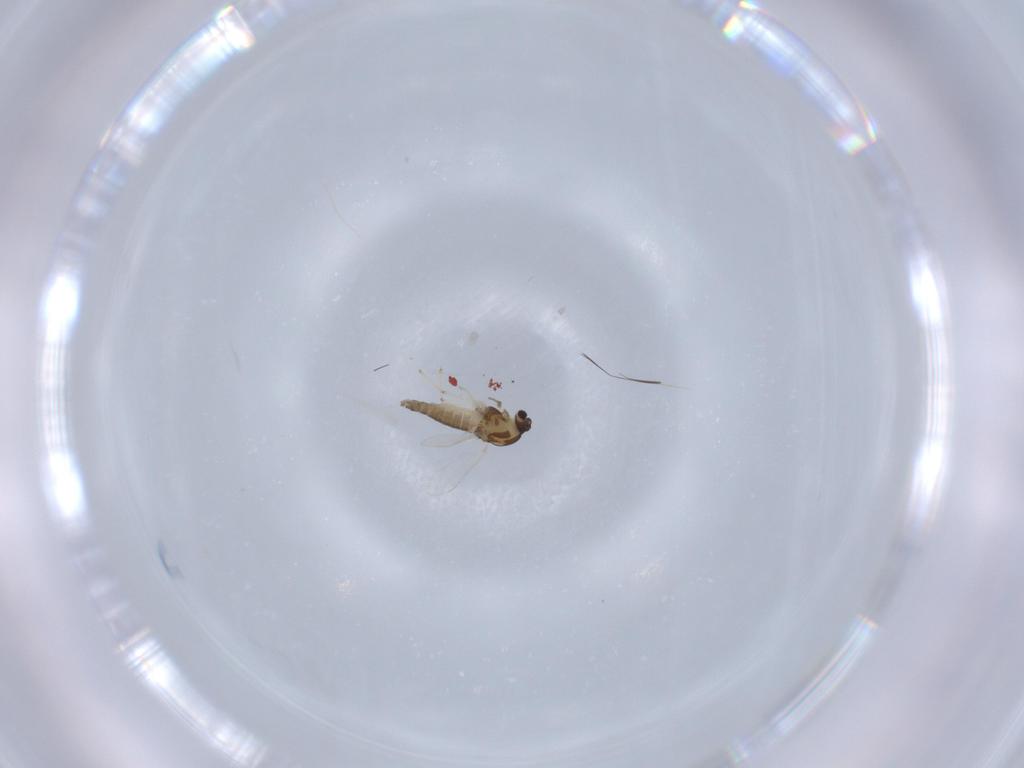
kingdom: Animalia
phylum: Arthropoda
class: Insecta
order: Diptera
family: Chironomidae
